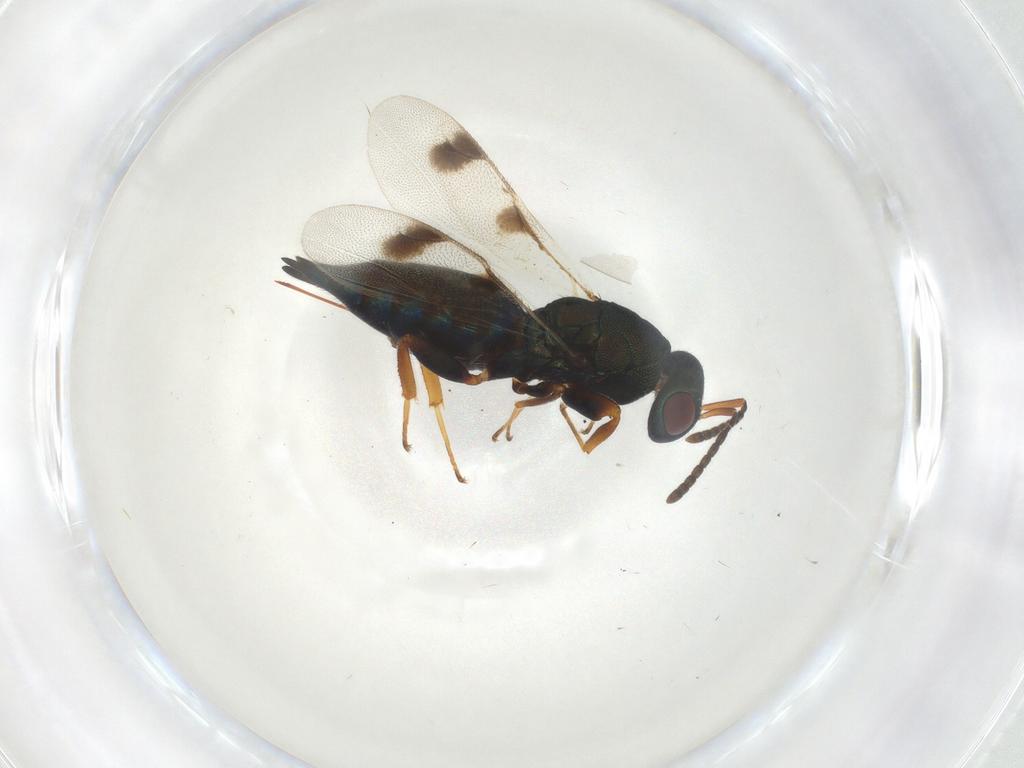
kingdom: Animalia
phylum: Arthropoda
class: Insecta
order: Hymenoptera
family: Pteromalidae
